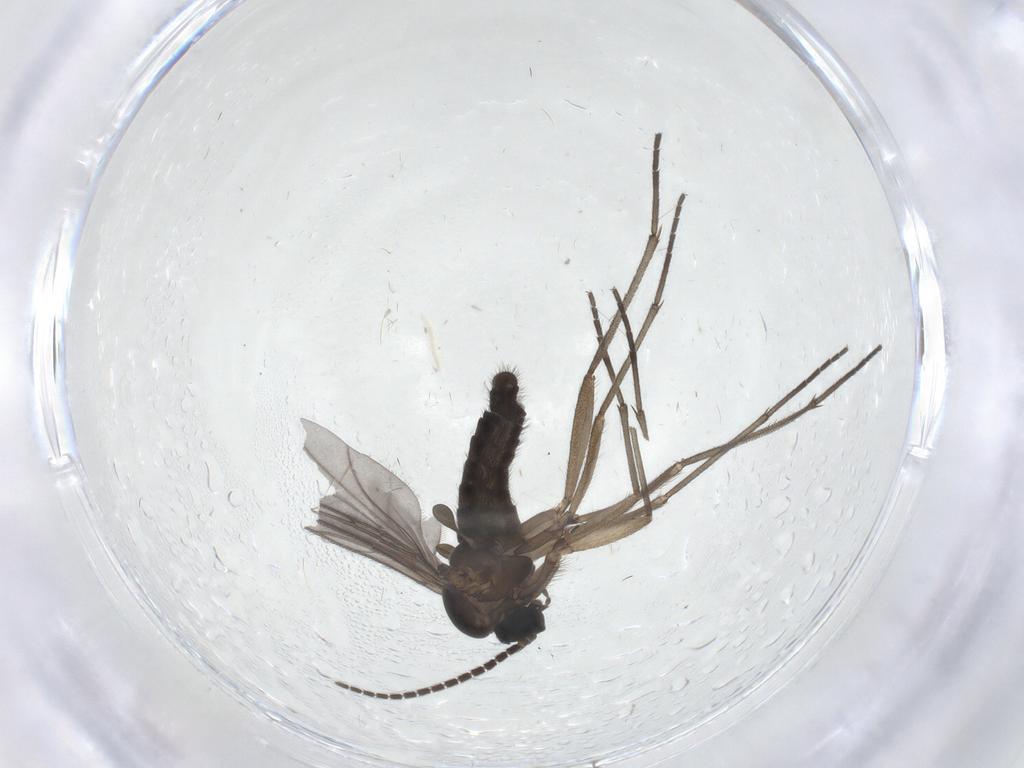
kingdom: Animalia
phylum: Arthropoda
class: Insecta
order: Diptera
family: Sciaridae
